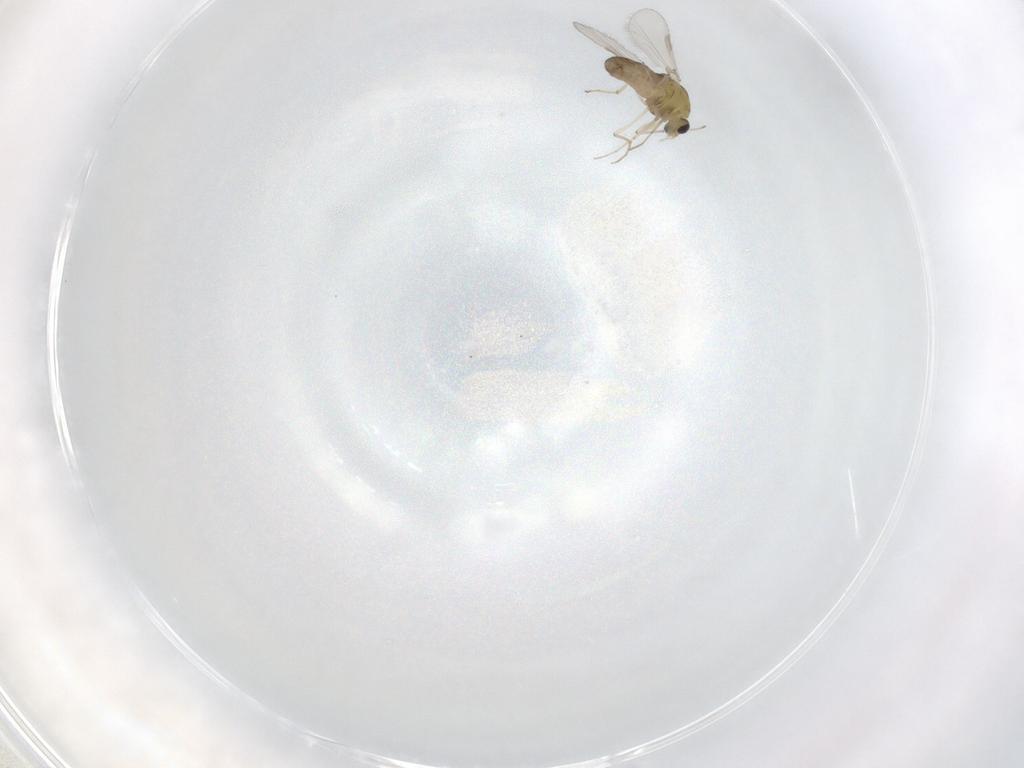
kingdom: Animalia
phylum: Arthropoda
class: Insecta
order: Diptera
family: Chironomidae
